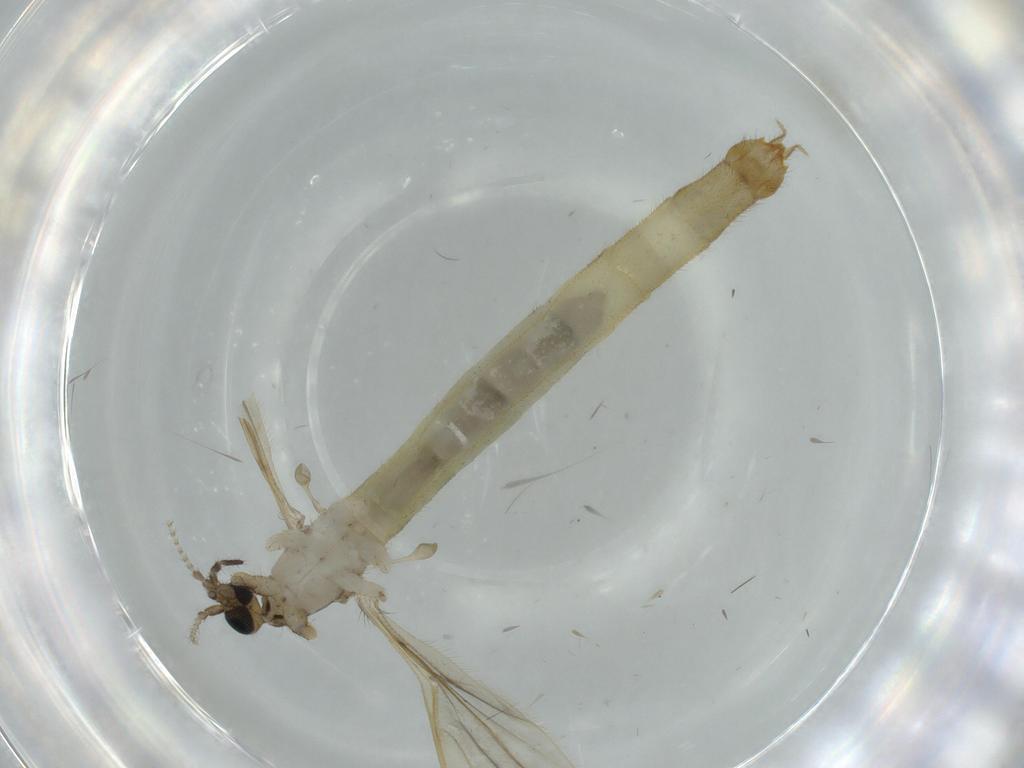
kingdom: Animalia
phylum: Arthropoda
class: Insecta
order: Diptera
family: Limoniidae
